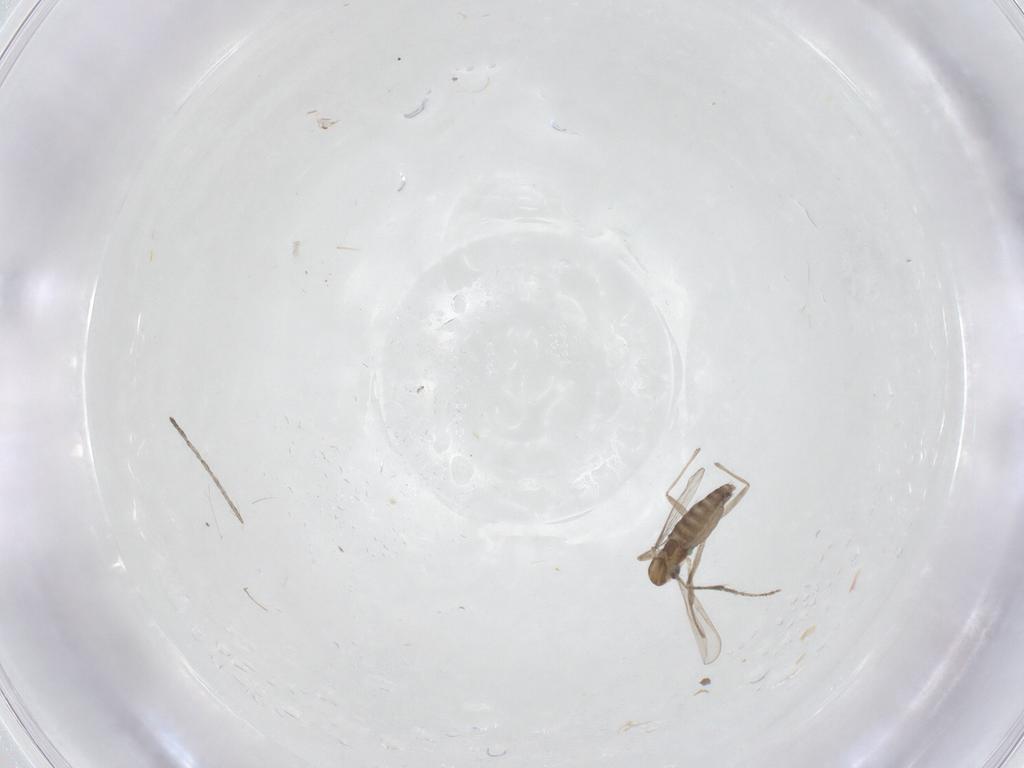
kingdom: Animalia
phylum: Arthropoda
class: Insecta
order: Diptera
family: Chironomidae
